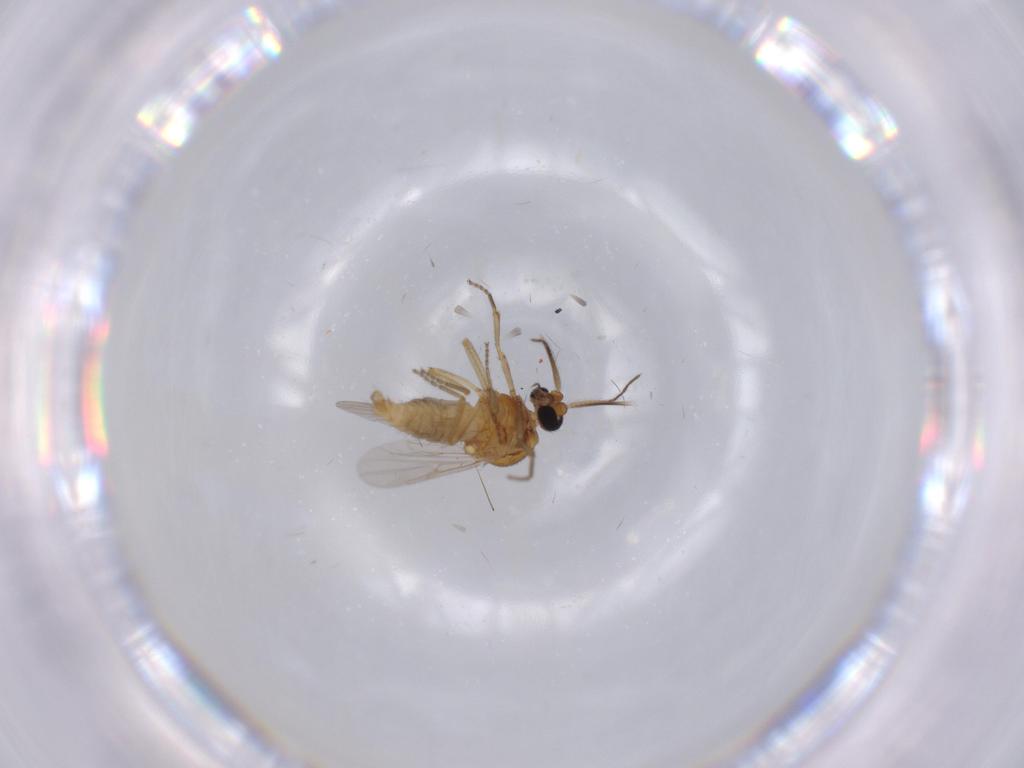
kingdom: Animalia
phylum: Arthropoda
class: Insecta
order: Diptera
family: Ceratopogonidae
